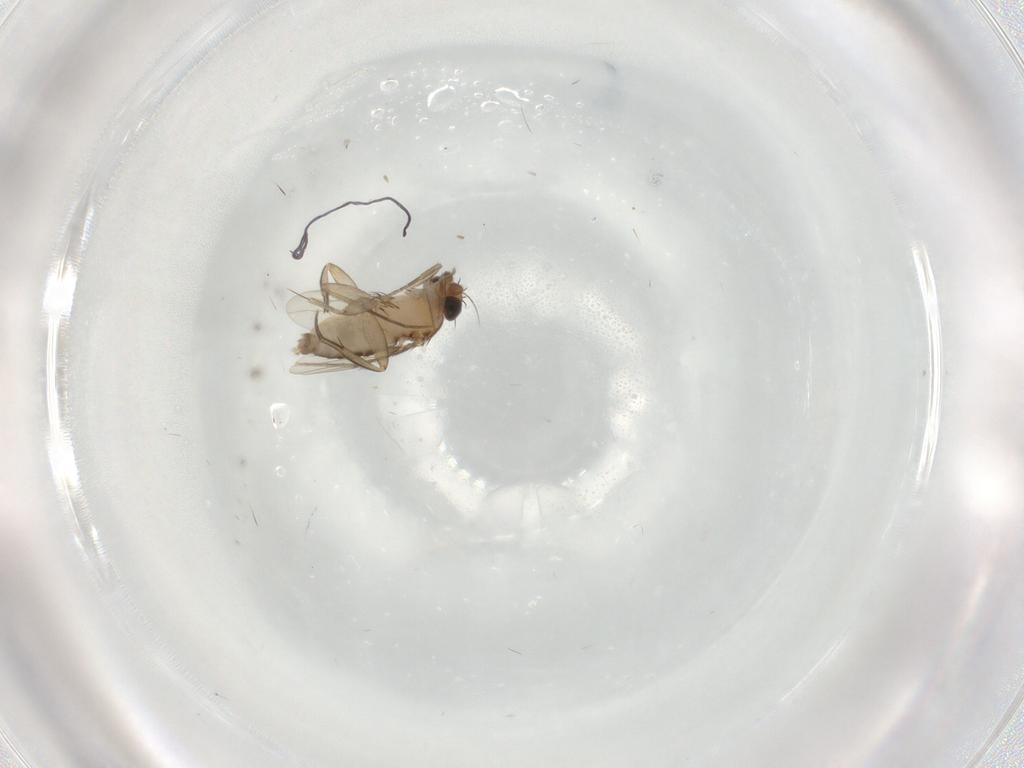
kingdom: Animalia
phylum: Arthropoda
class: Insecta
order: Diptera
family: Phoridae
